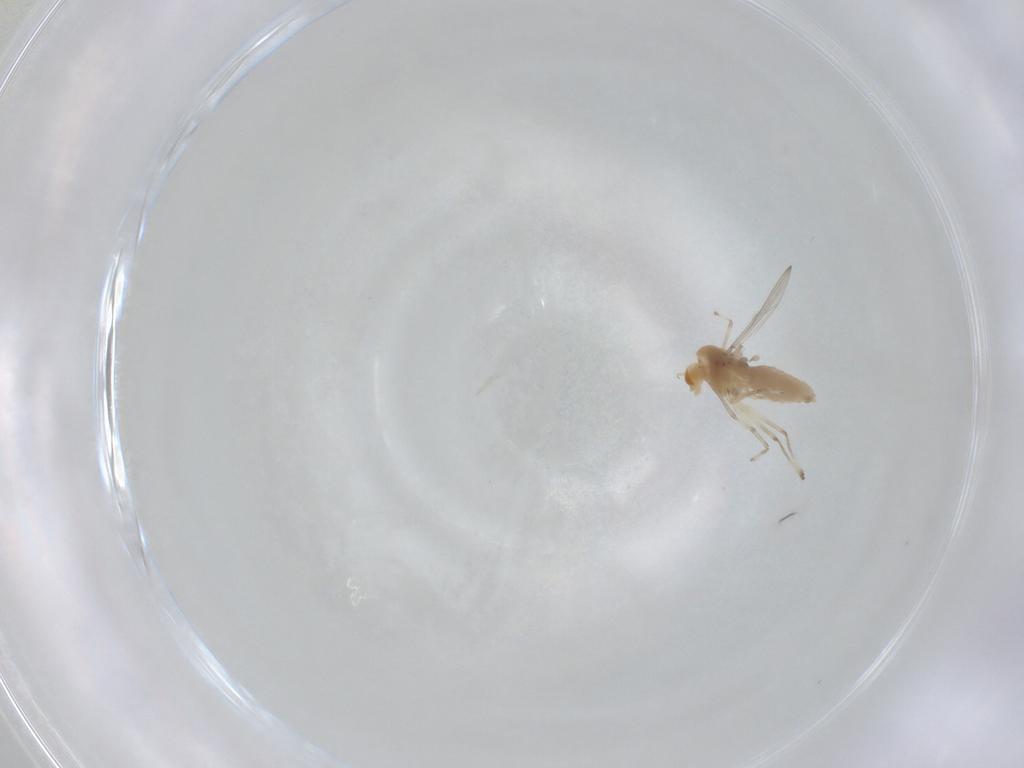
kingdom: Animalia
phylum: Arthropoda
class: Insecta
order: Diptera
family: Chironomidae
